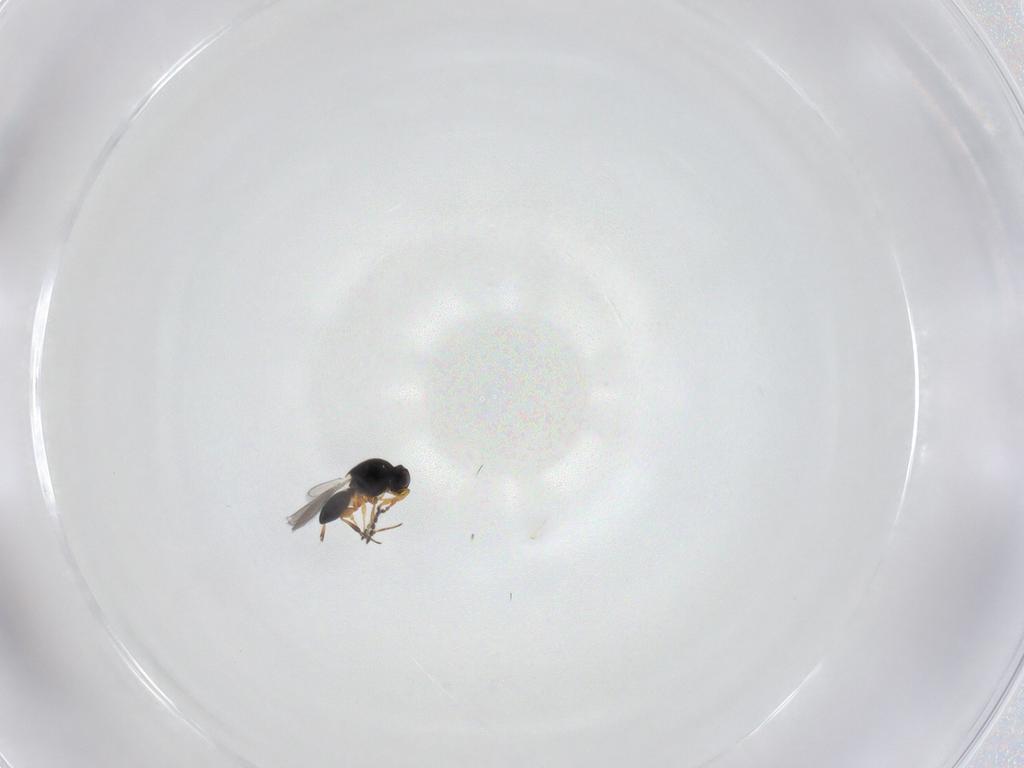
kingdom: Animalia
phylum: Arthropoda
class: Insecta
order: Hymenoptera
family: Platygastridae
